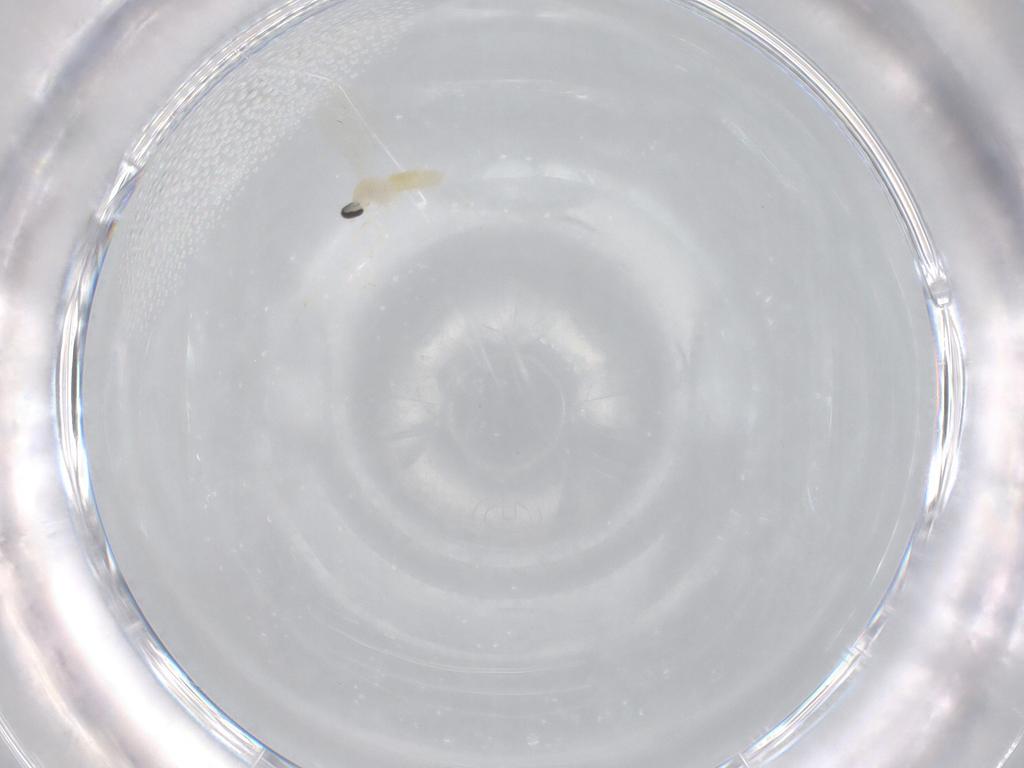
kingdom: Animalia
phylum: Arthropoda
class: Insecta
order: Diptera
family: Cecidomyiidae
